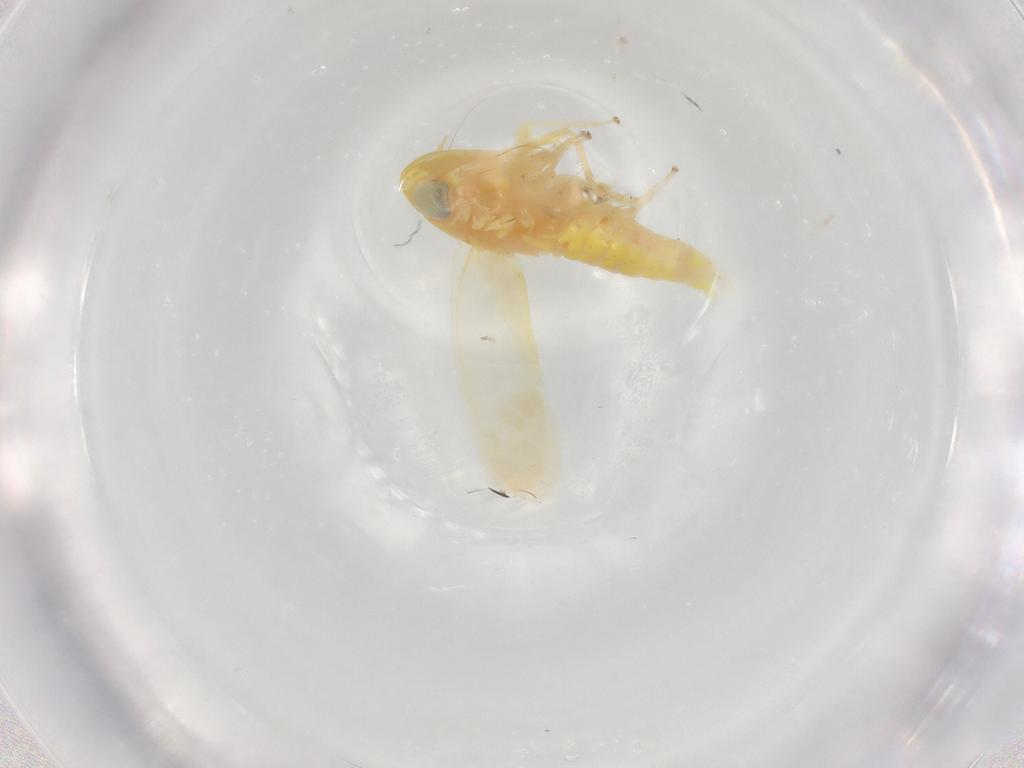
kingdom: Animalia
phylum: Arthropoda
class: Insecta
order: Hemiptera
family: Cicadellidae
